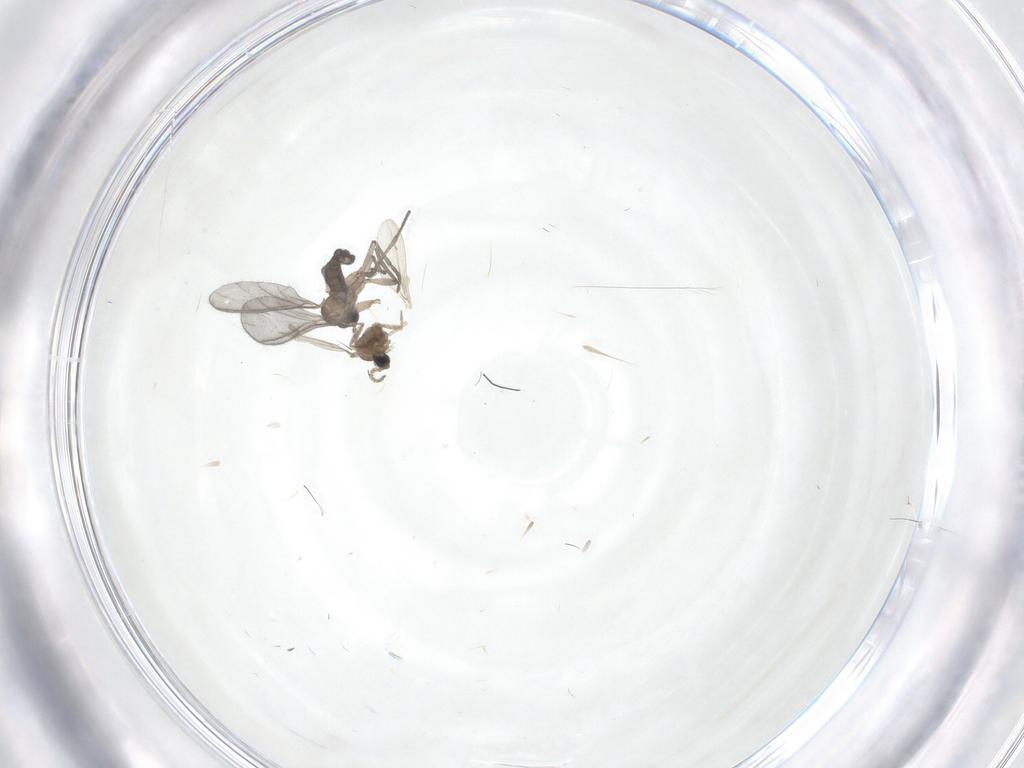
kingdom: Animalia
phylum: Arthropoda
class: Insecta
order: Diptera
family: Cecidomyiidae
